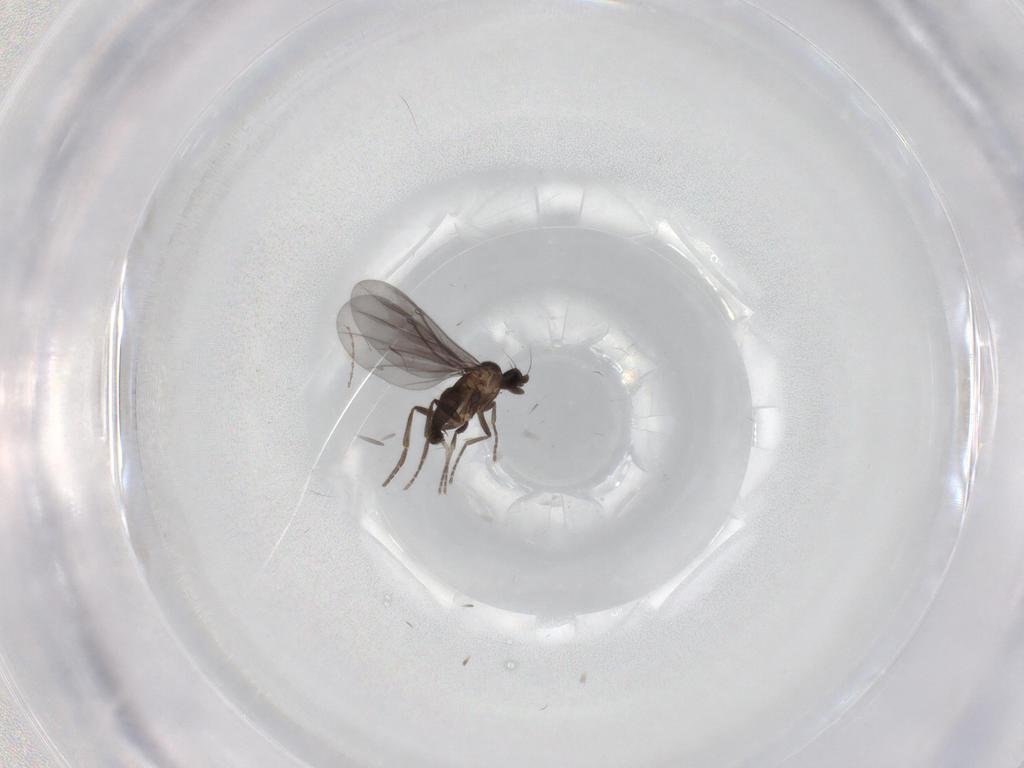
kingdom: Animalia
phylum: Arthropoda
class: Insecta
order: Diptera
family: Phoridae
